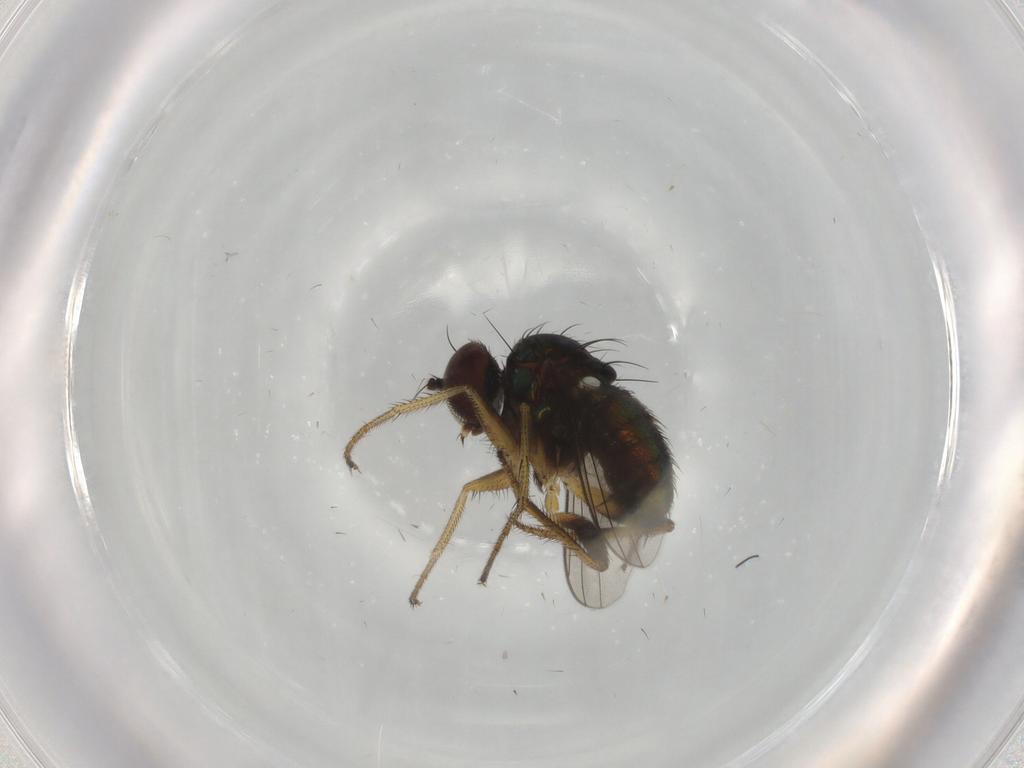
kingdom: Animalia
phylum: Arthropoda
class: Insecta
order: Diptera
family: Dolichopodidae
